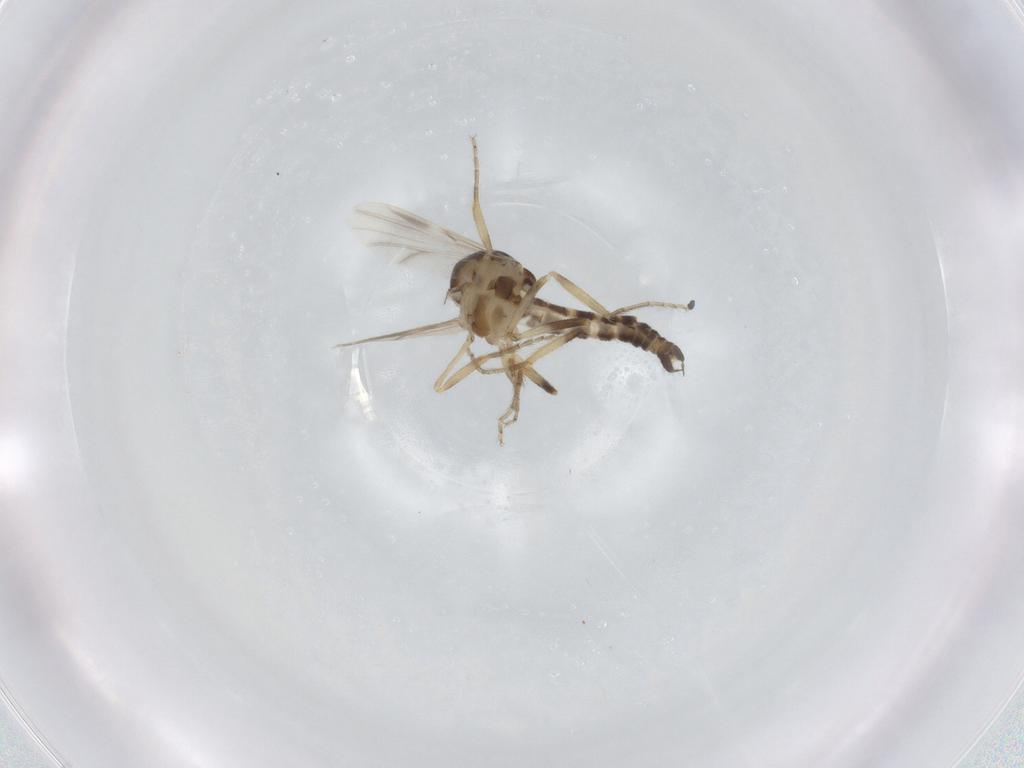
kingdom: Animalia
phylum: Arthropoda
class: Insecta
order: Diptera
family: Ceratopogonidae
